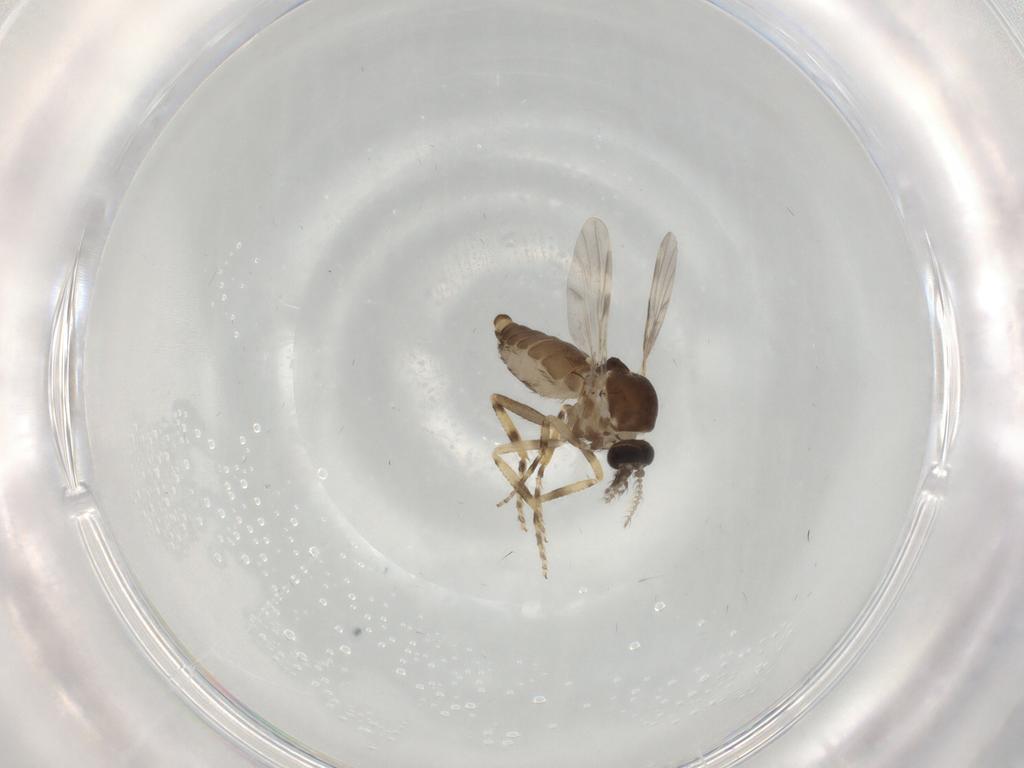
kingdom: Animalia
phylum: Arthropoda
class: Insecta
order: Diptera
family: Ceratopogonidae
